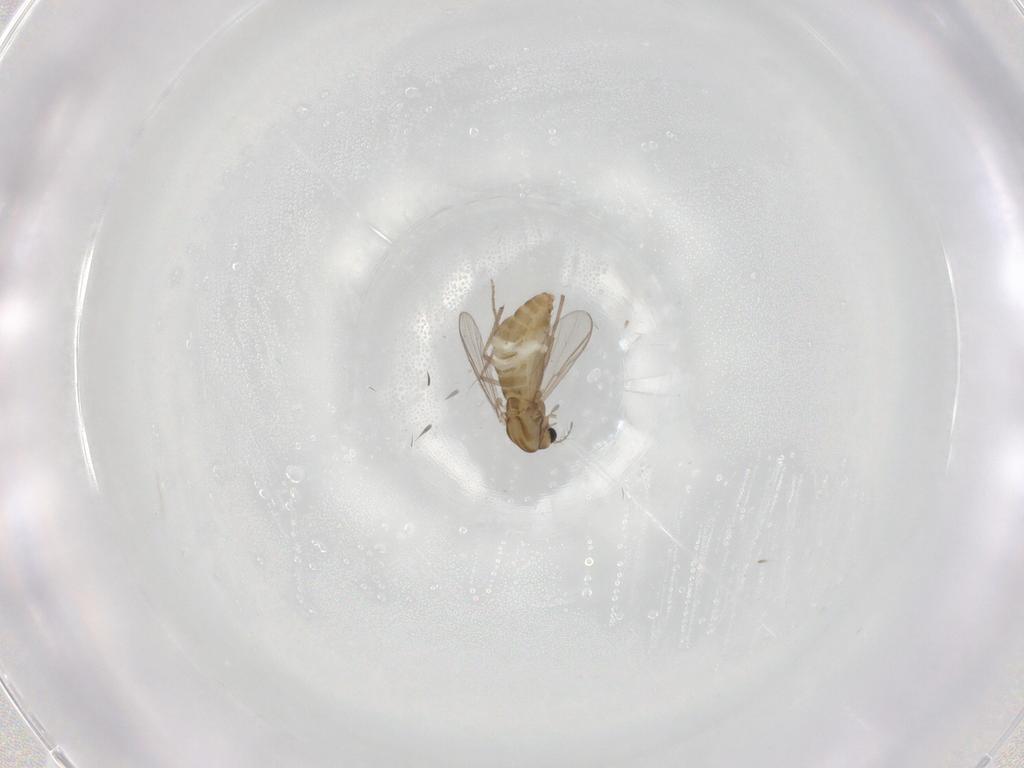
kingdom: Animalia
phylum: Arthropoda
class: Insecta
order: Diptera
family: Chironomidae
